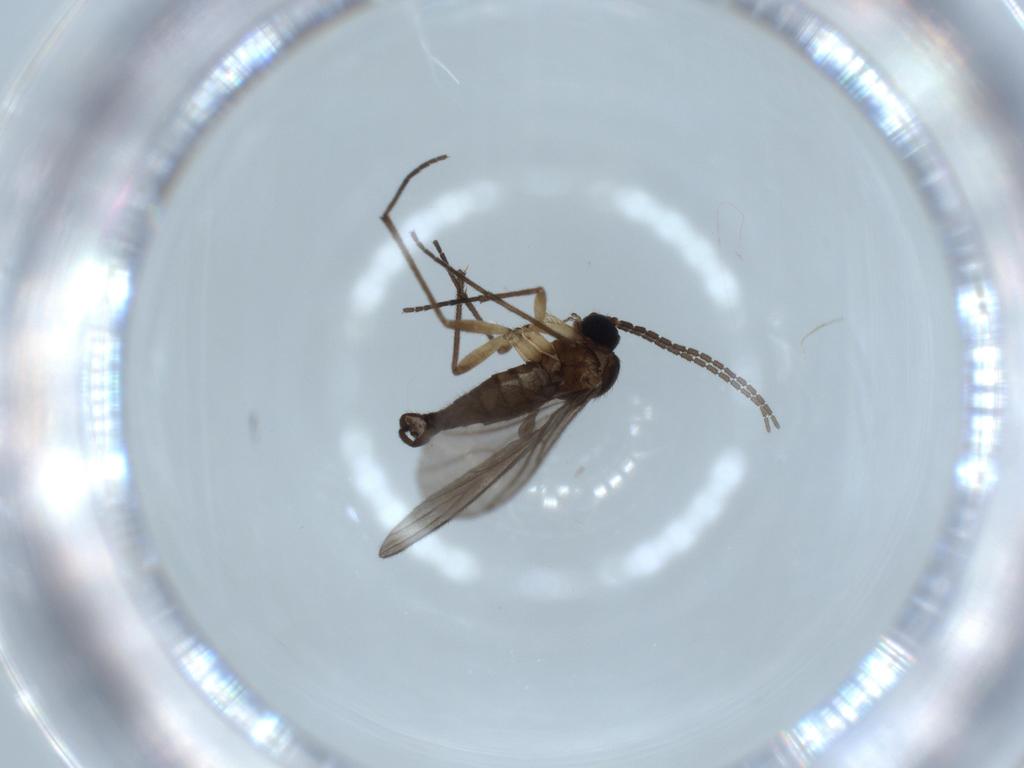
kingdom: Animalia
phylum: Arthropoda
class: Insecta
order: Diptera
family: Sciaridae
